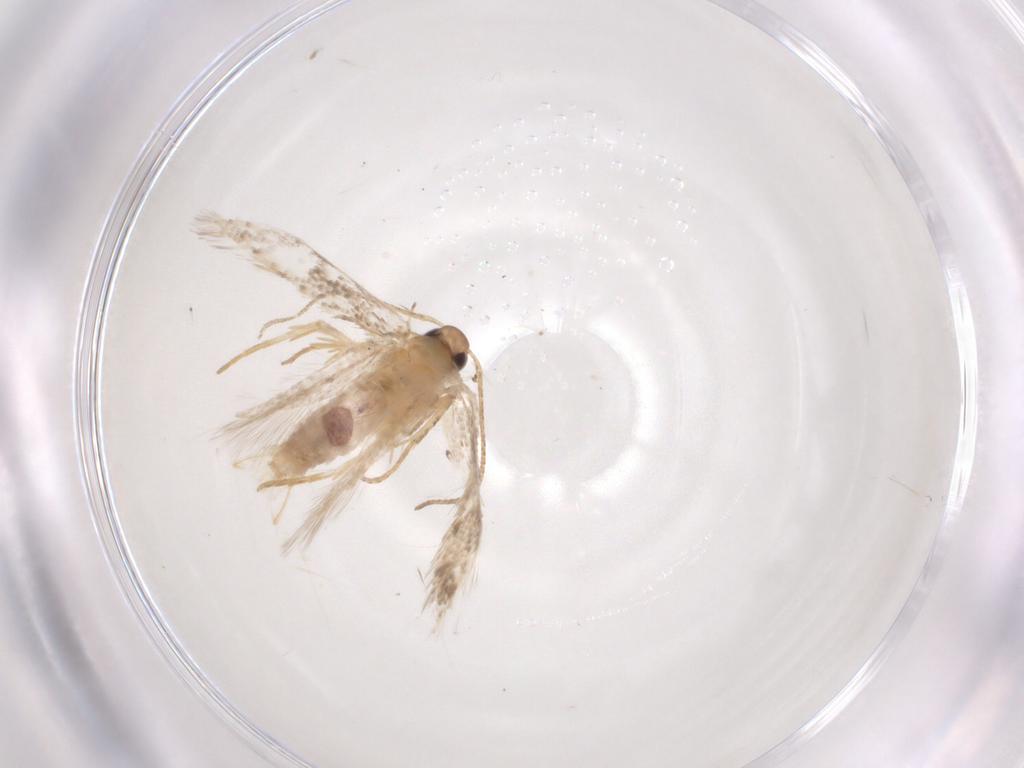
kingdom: Animalia
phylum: Arthropoda
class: Insecta
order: Lepidoptera
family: Gelechiidae
